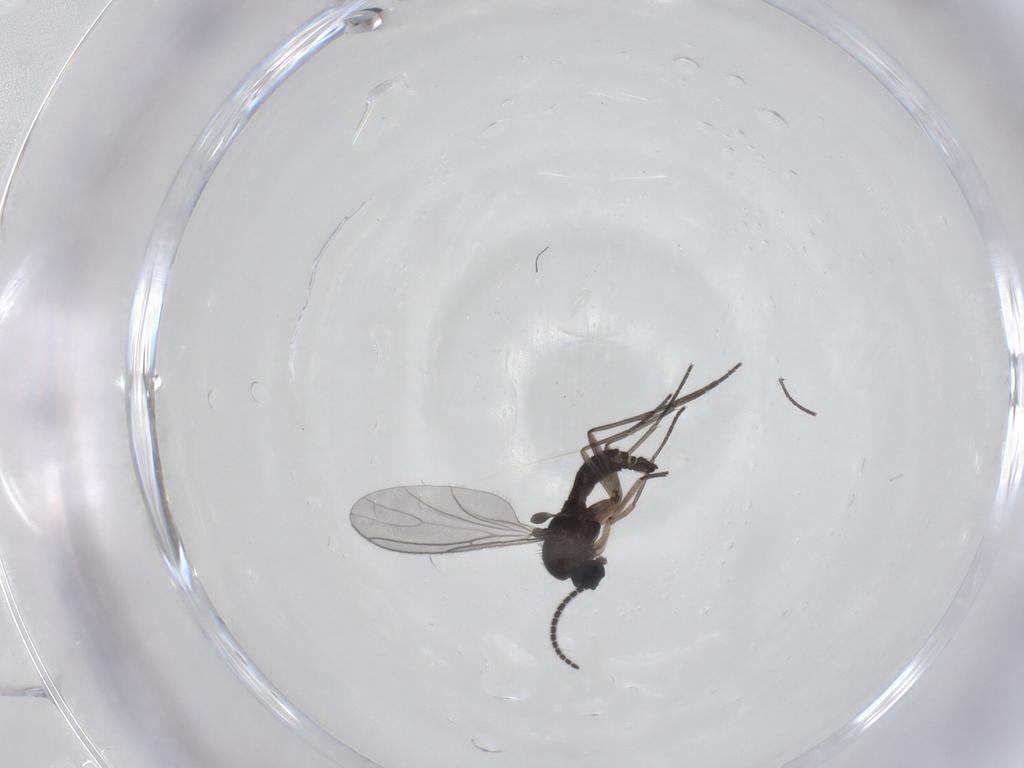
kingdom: Animalia
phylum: Arthropoda
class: Insecta
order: Diptera
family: Sciaridae
